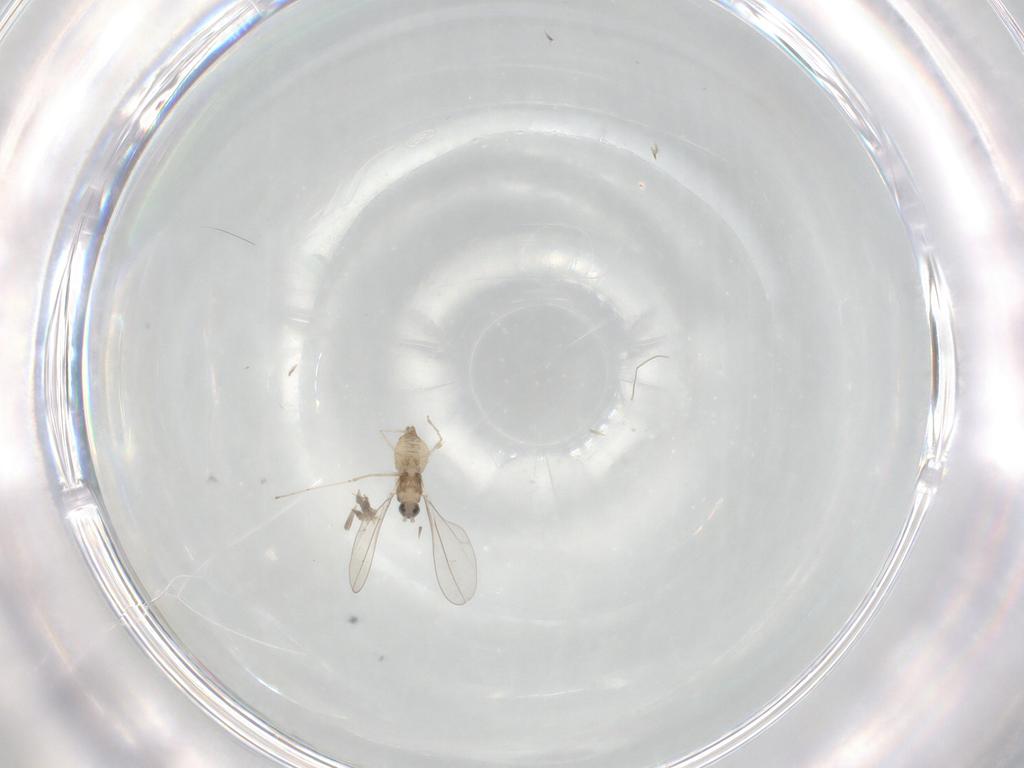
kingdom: Animalia
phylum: Arthropoda
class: Insecta
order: Diptera
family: Cecidomyiidae
